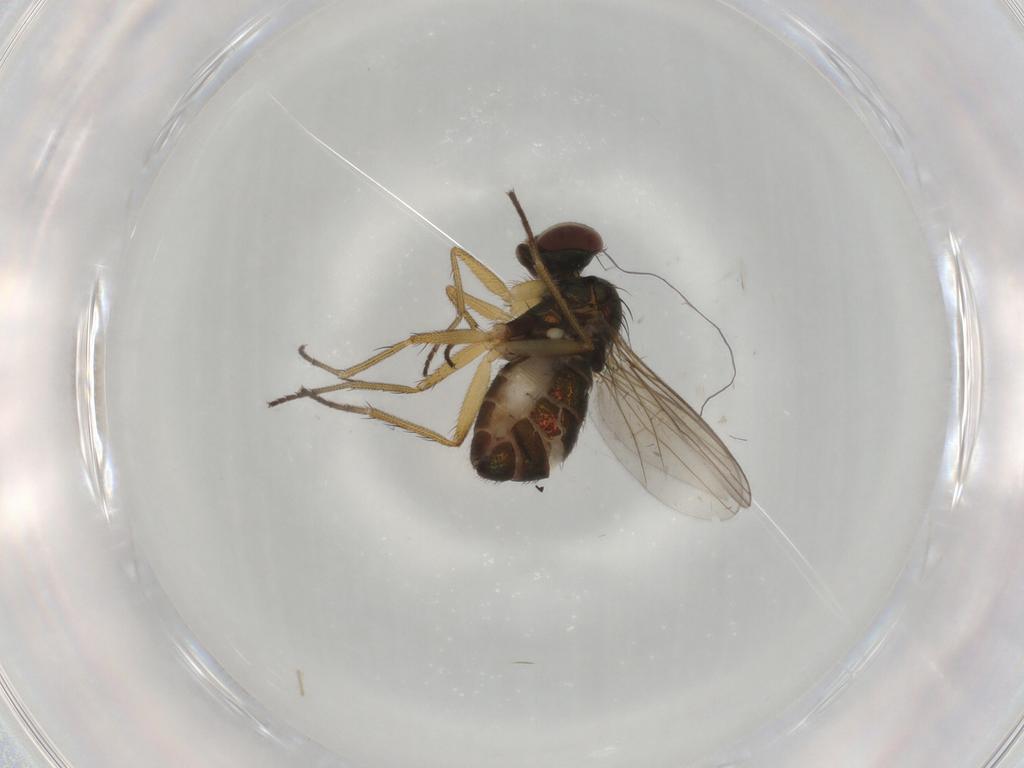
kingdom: Animalia
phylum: Arthropoda
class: Insecta
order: Diptera
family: Dolichopodidae
